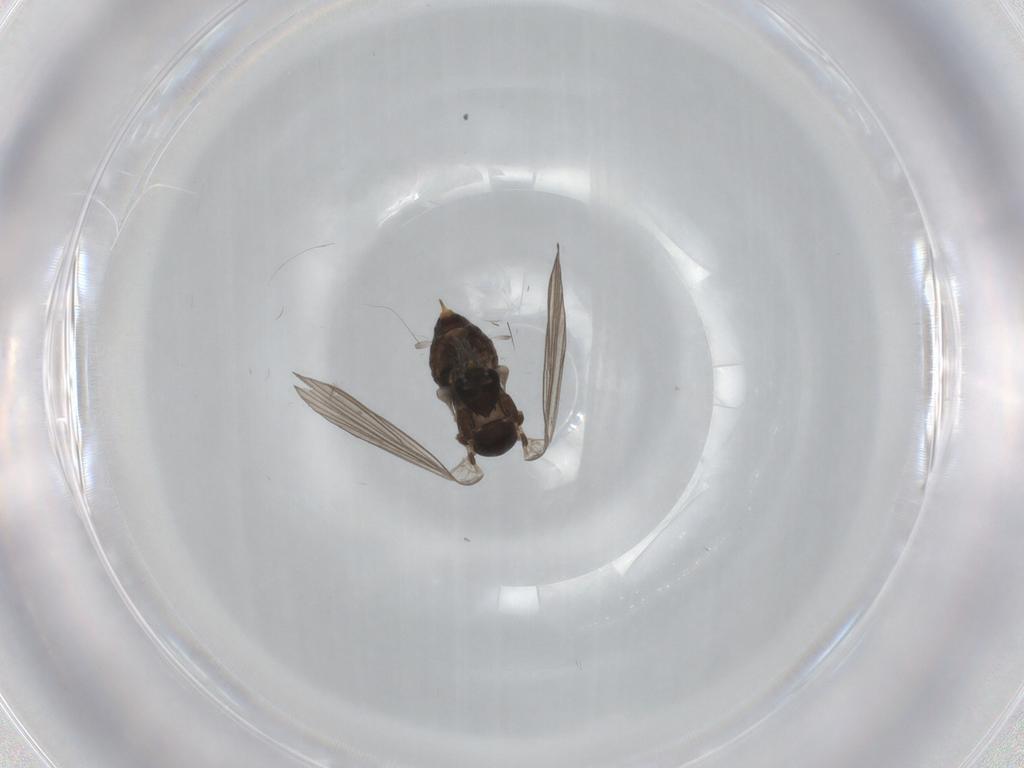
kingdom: Animalia
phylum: Arthropoda
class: Insecta
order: Diptera
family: Psychodidae
